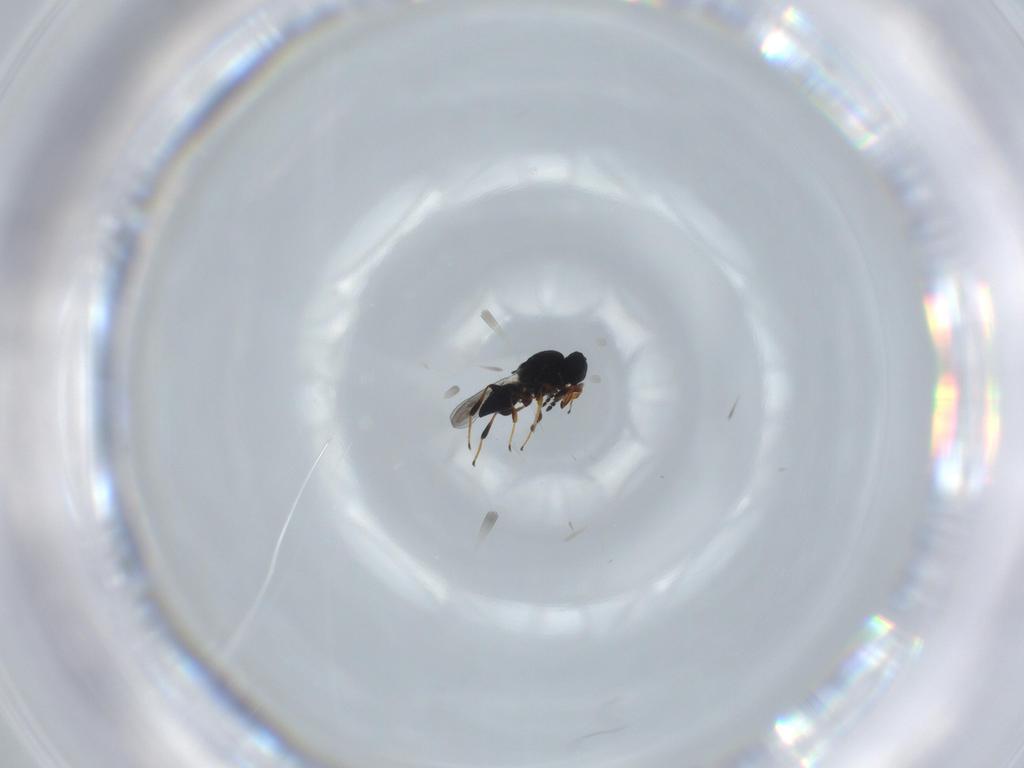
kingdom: Animalia
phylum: Arthropoda
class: Insecta
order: Hymenoptera
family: Platygastridae
